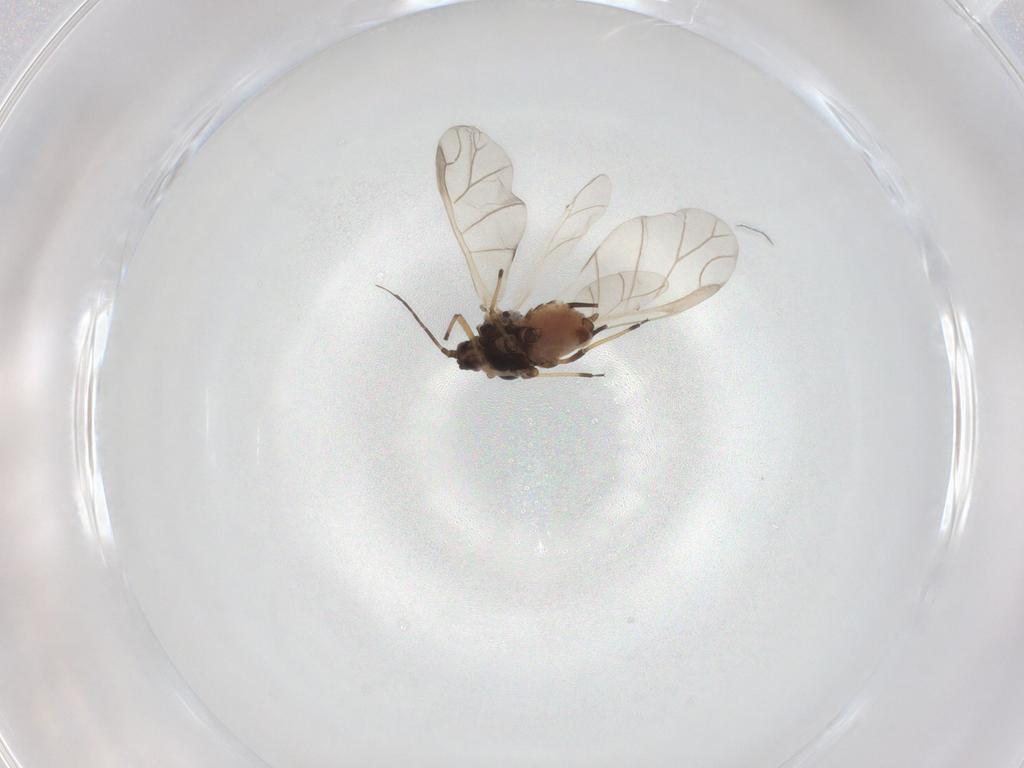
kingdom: Animalia
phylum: Arthropoda
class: Insecta
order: Hemiptera
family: Aphididae
